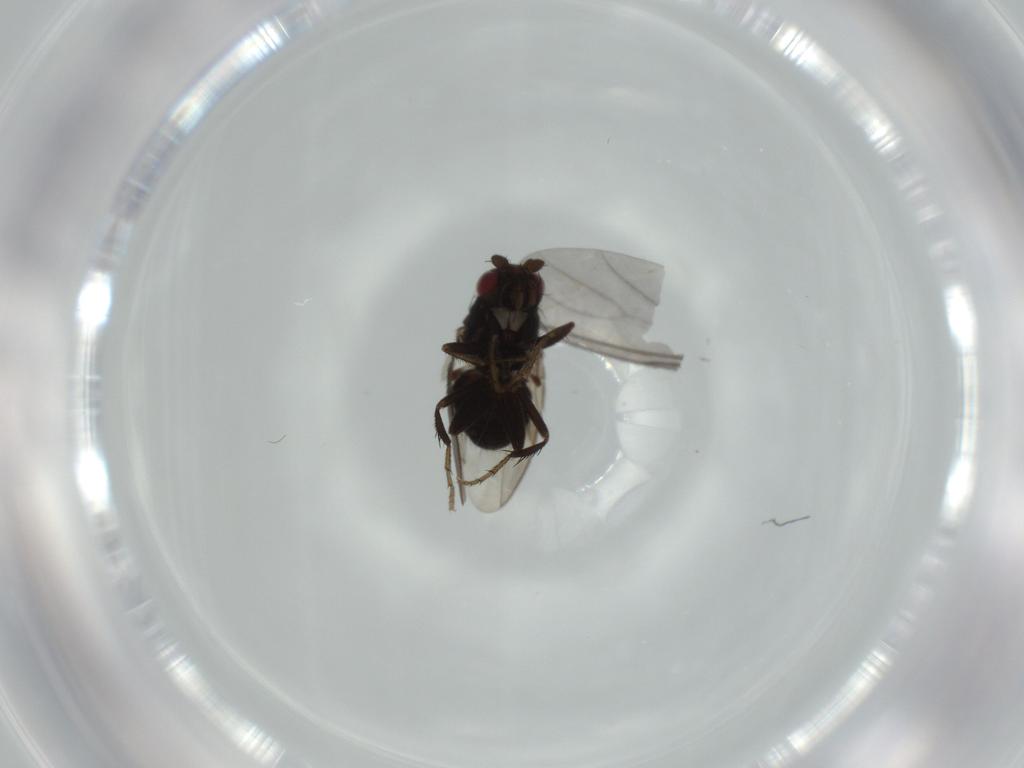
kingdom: Animalia
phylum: Arthropoda
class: Insecta
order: Diptera
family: Sphaeroceridae
